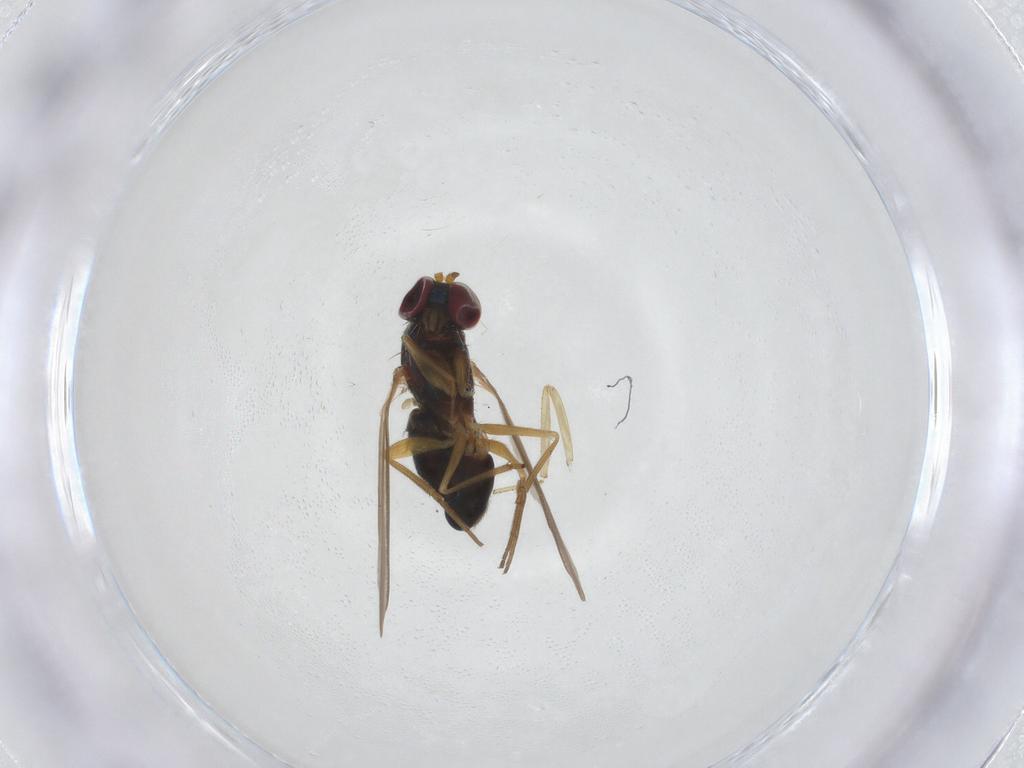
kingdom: Animalia
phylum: Arthropoda
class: Insecta
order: Diptera
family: Dolichopodidae
